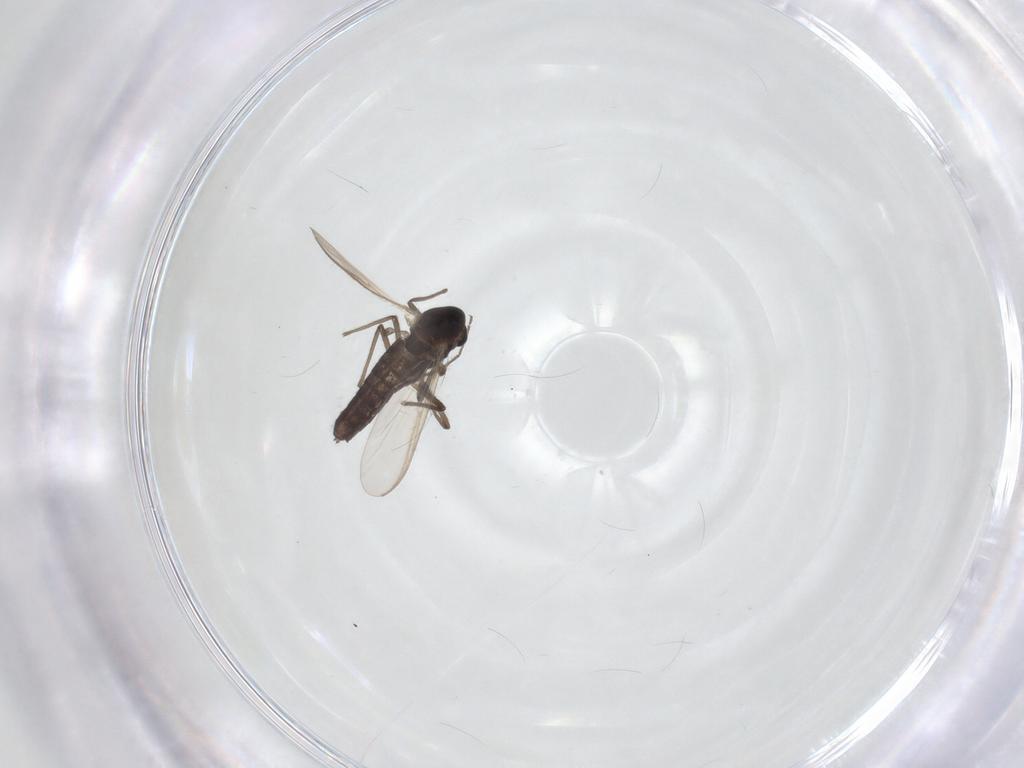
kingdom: Animalia
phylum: Arthropoda
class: Insecta
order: Diptera
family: Chironomidae
